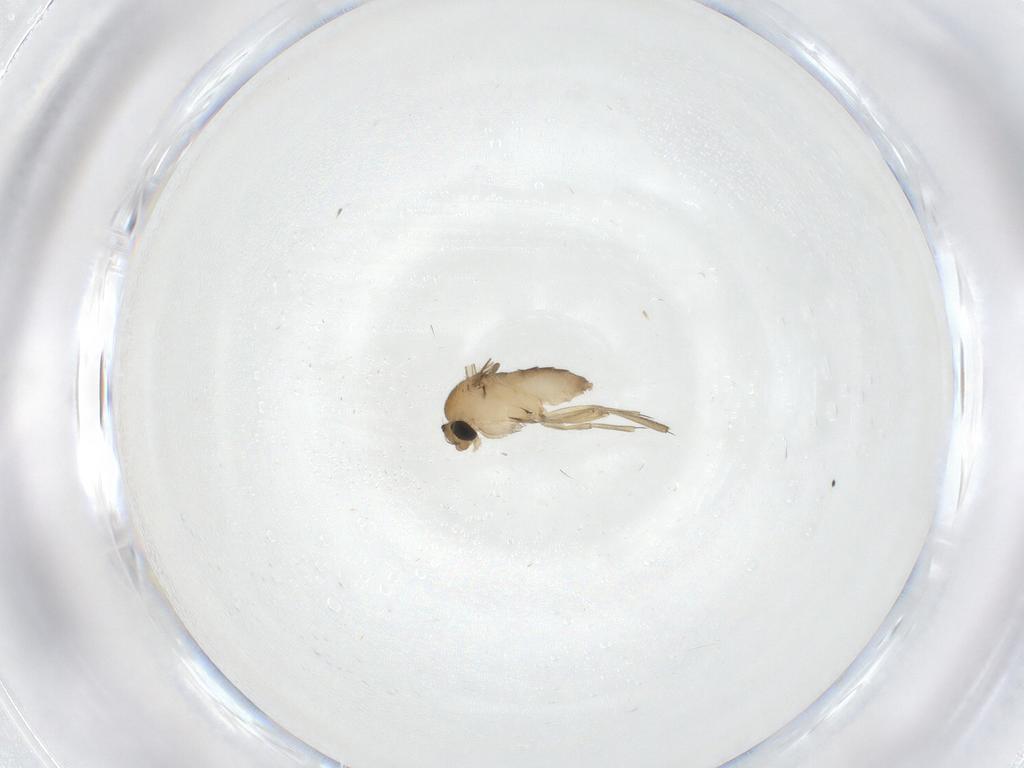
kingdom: Animalia
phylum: Arthropoda
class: Insecta
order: Diptera
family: Phoridae
